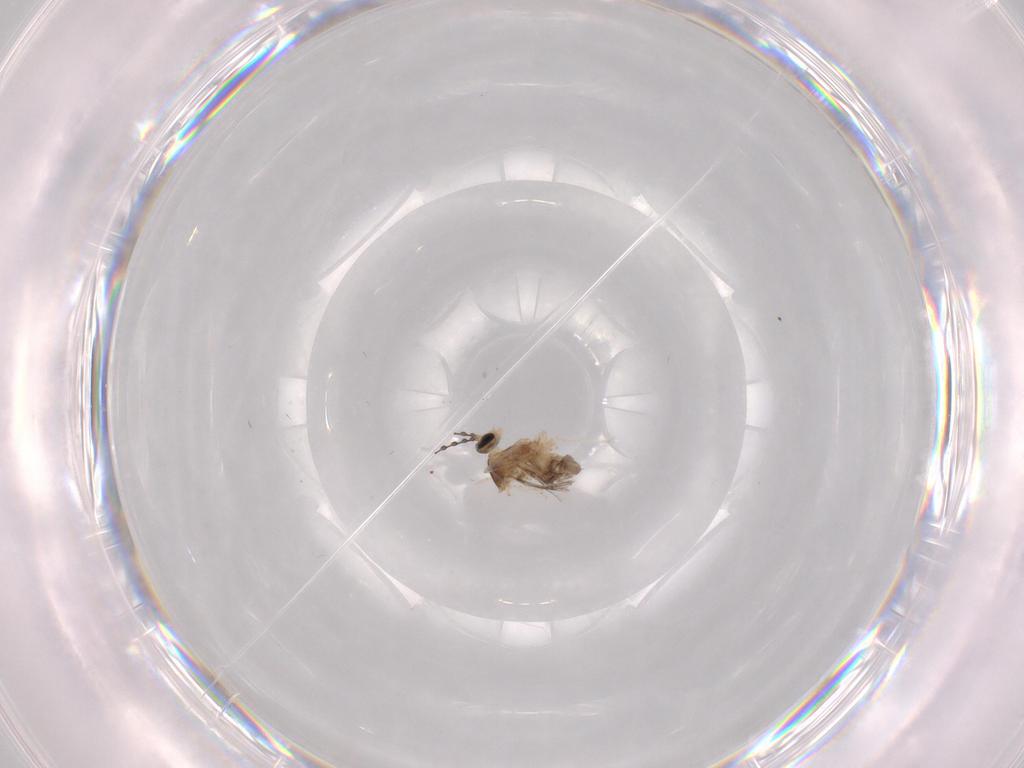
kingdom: Animalia
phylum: Arthropoda
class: Insecta
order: Diptera
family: Cecidomyiidae
